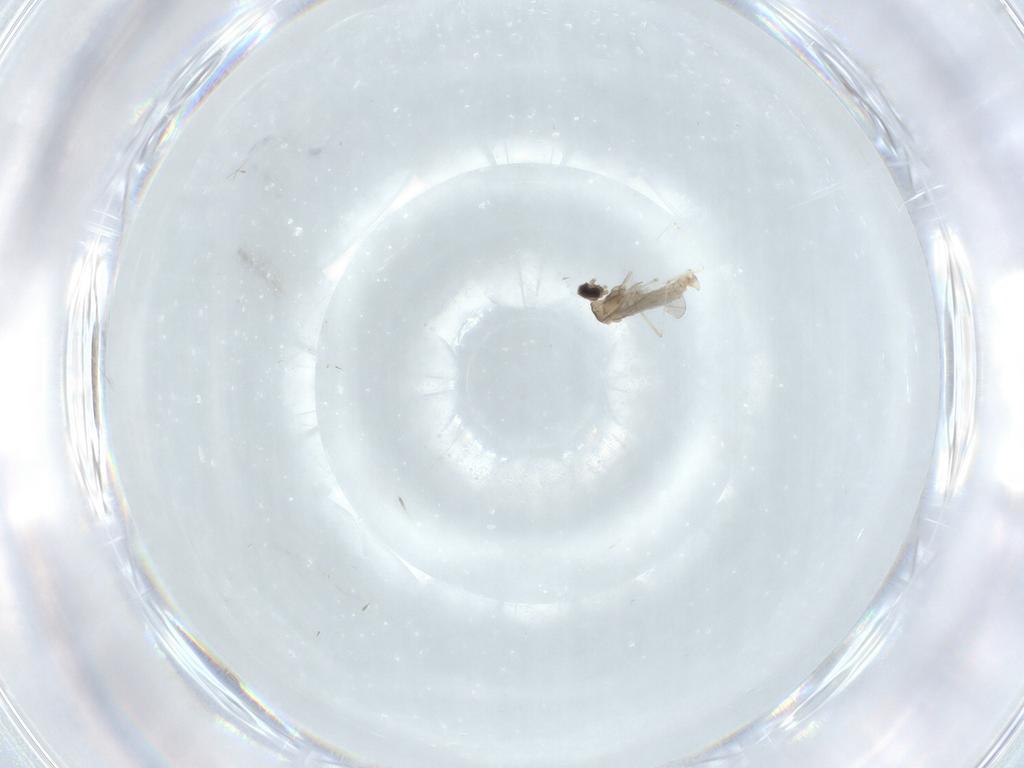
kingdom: Animalia
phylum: Arthropoda
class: Insecta
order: Diptera
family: Cecidomyiidae
